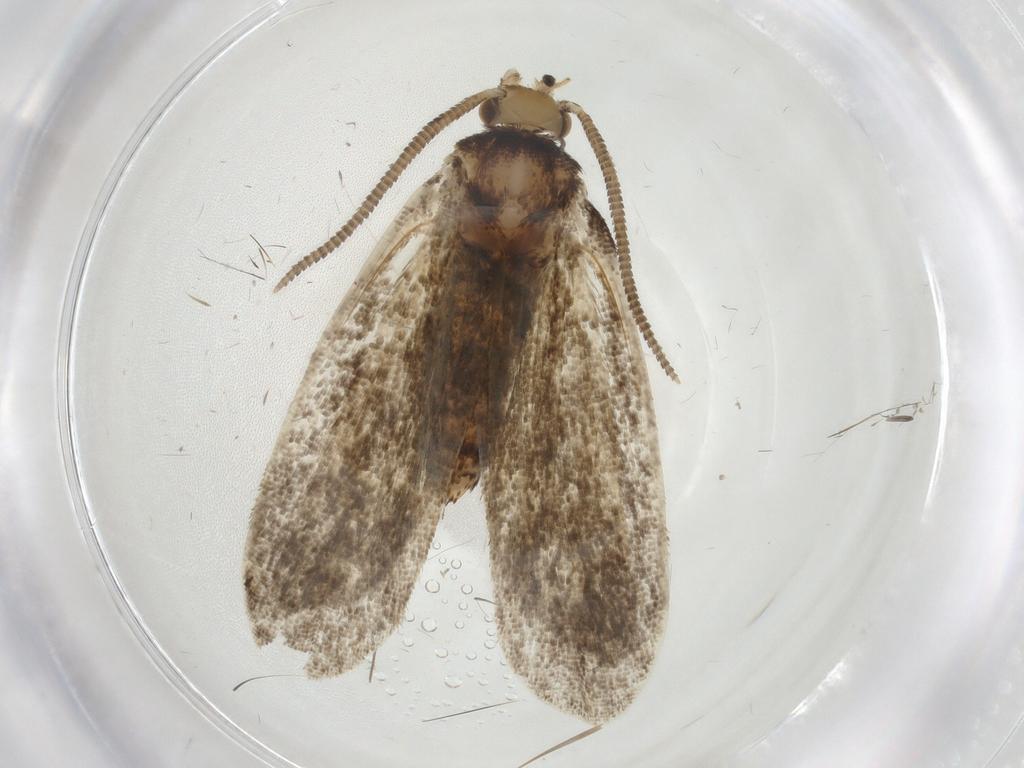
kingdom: Animalia
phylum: Arthropoda
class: Insecta
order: Lepidoptera
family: Dryadaulidae
